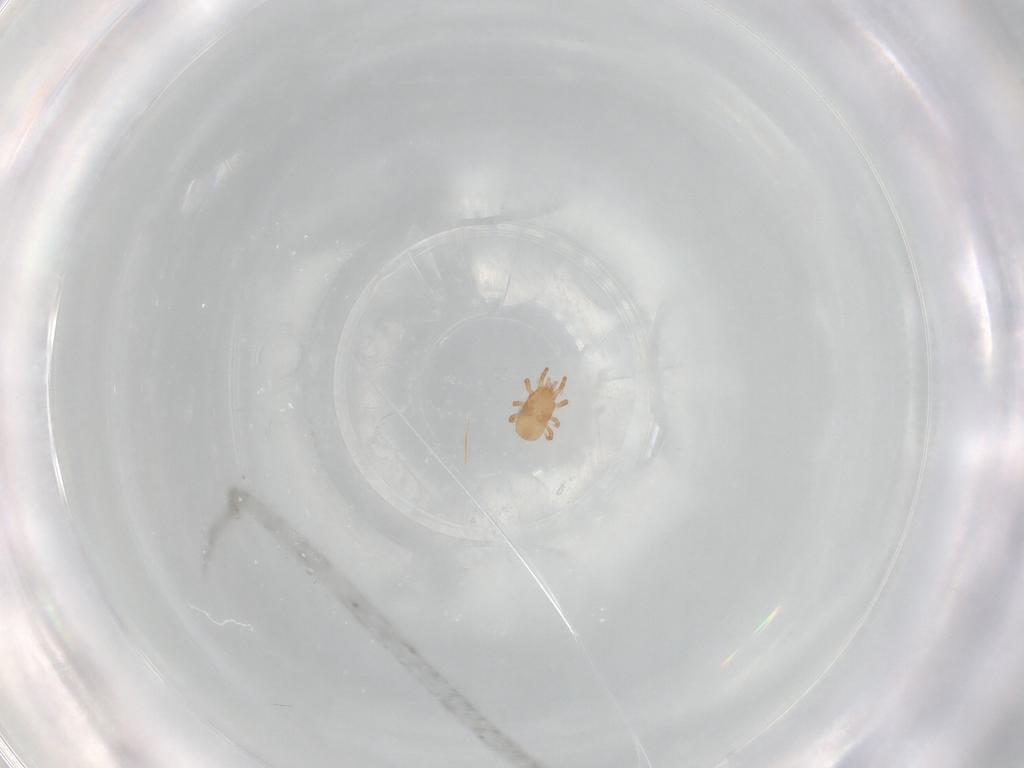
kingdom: Animalia
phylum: Arthropoda
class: Arachnida
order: Mesostigmata
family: Ascidae
